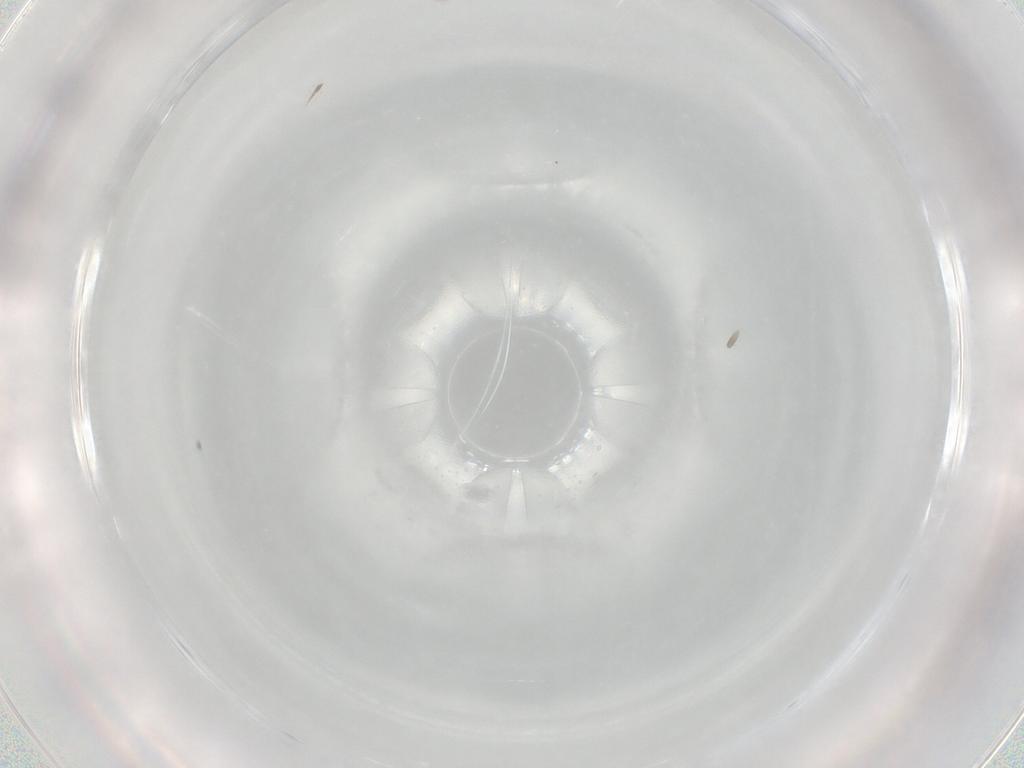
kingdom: Animalia
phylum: Arthropoda
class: Insecta
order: Hymenoptera
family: Scelionidae
